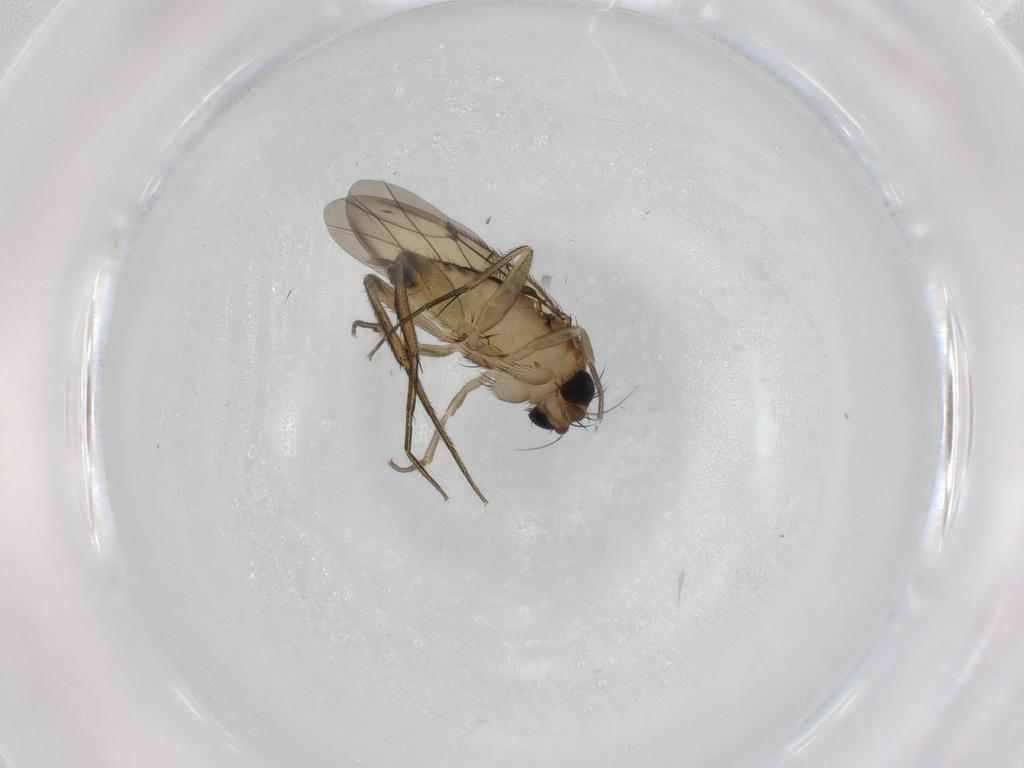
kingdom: Animalia
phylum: Arthropoda
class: Insecta
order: Diptera
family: Phoridae
